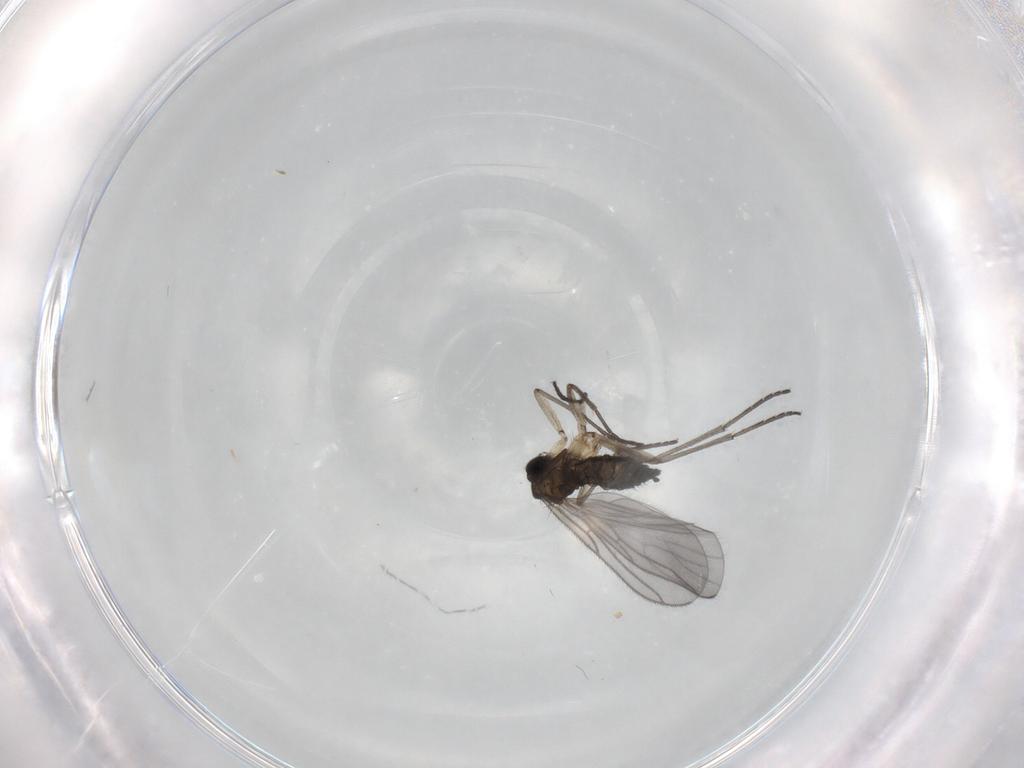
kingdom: Animalia
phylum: Arthropoda
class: Insecta
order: Diptera
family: Sciaridae
